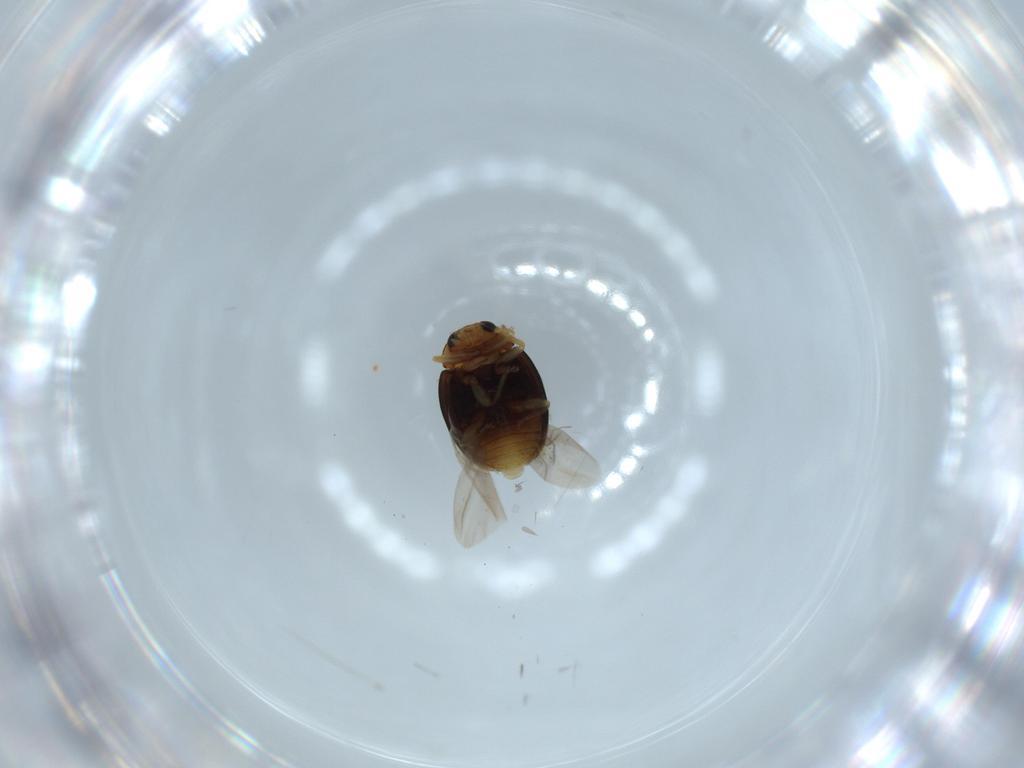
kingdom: Animalia
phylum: Arthropoda
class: Insecta
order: Coleoptera
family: Coccinellidae
